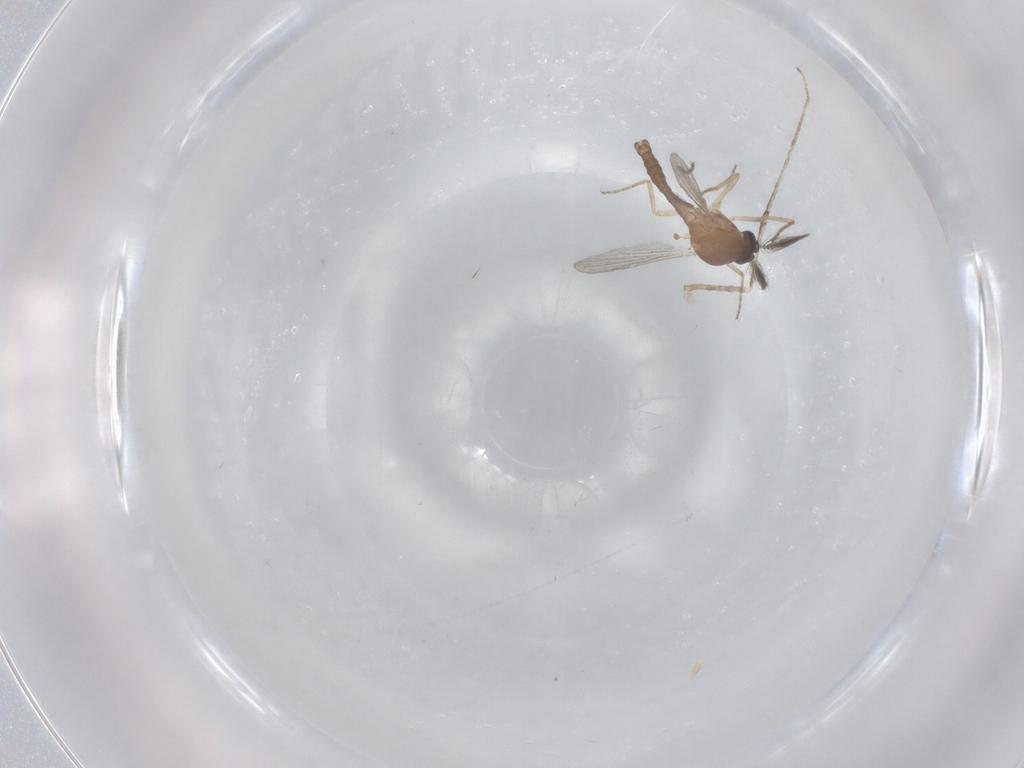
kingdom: Animalia
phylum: Arthropoda
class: Insecta
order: Diptera
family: Ceratopogonidae
